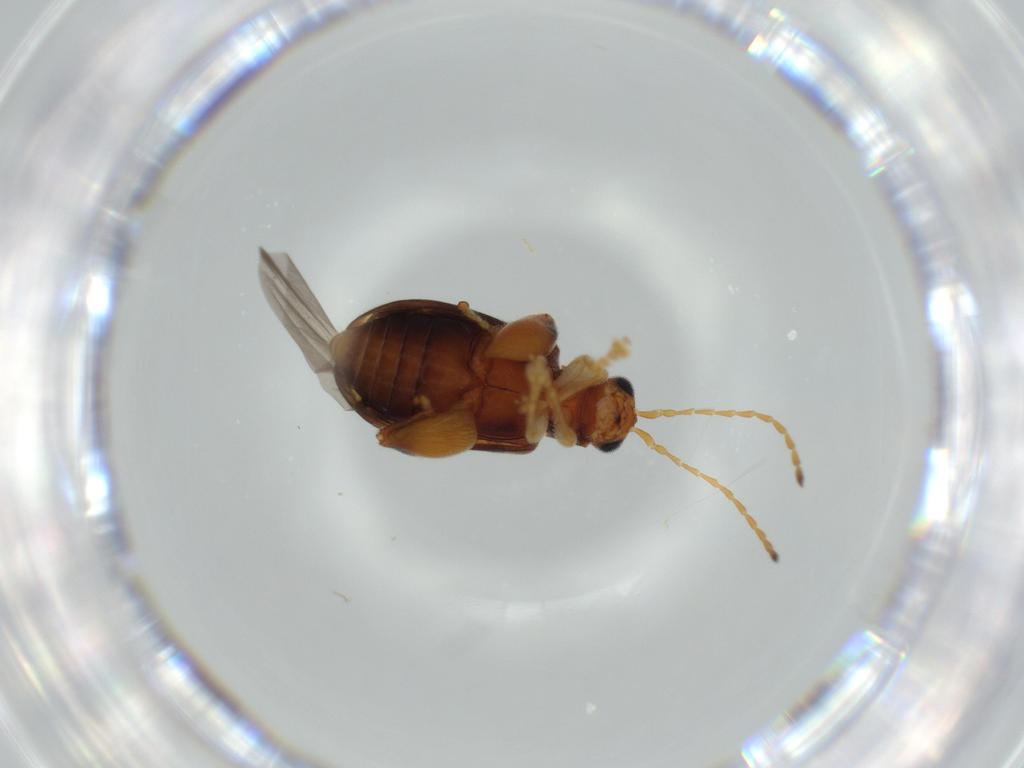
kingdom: Animalia
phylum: Arthropoda
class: Insecta
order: Coleoptera
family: Chrysomelidae
